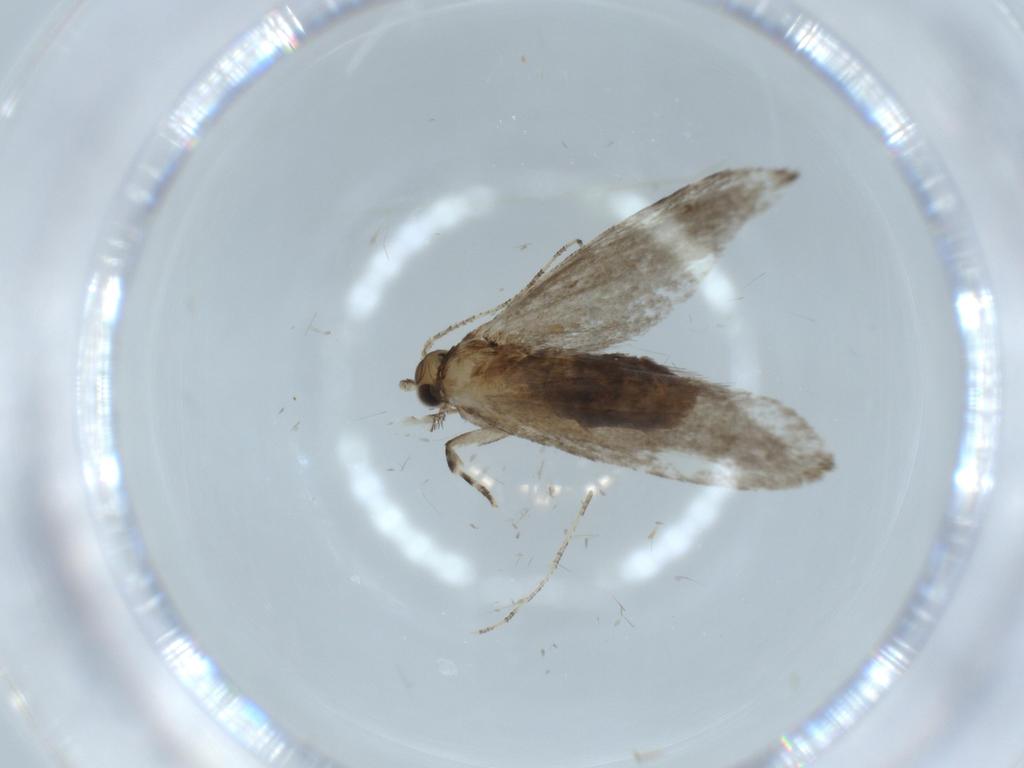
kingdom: Animalia
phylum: Arthropoda
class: Insecta
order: Lepidoptera
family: Tineidae
